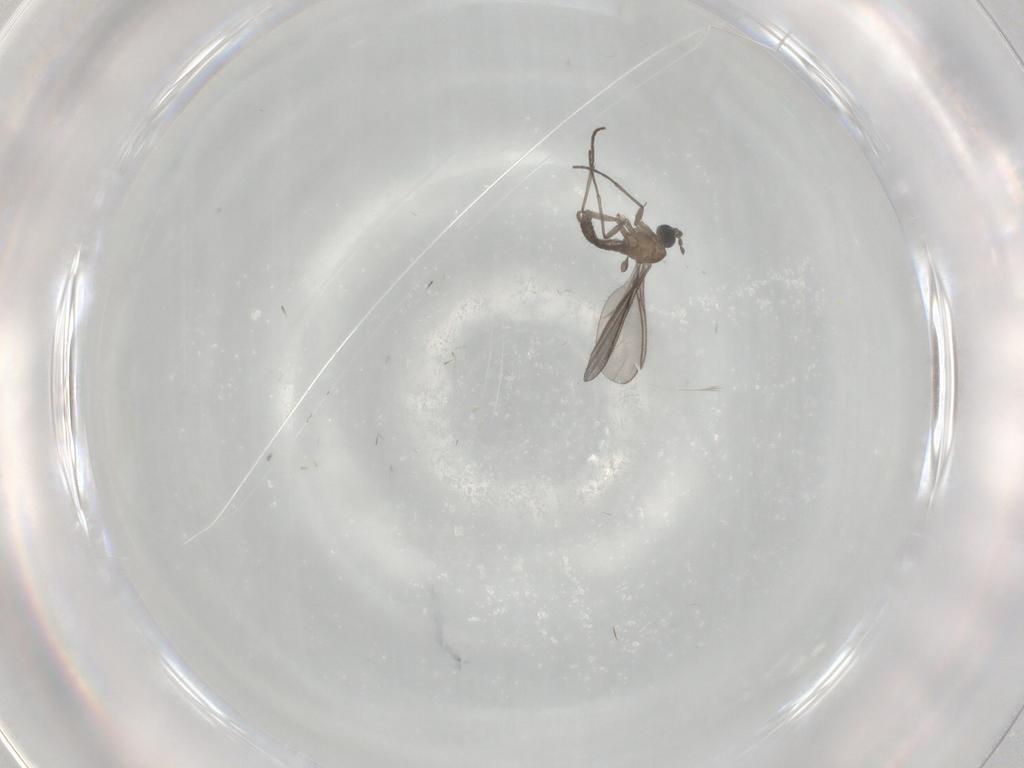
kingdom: Animalia
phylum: Arthropoda
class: Insecta
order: Diptera
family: Sciaridae
